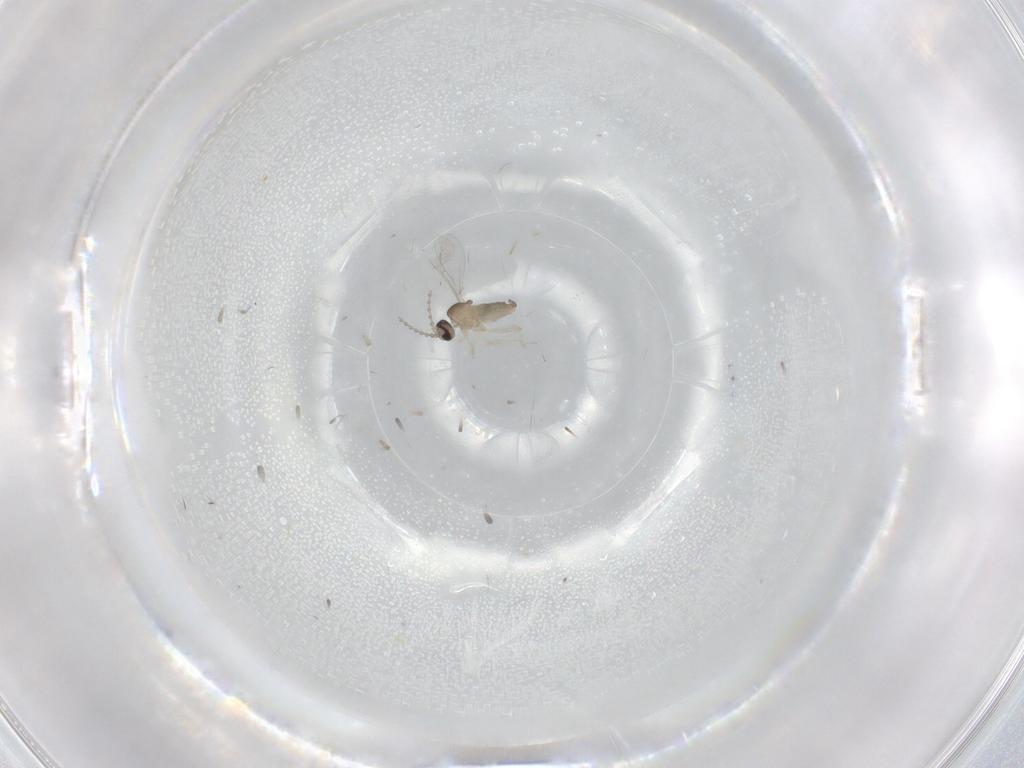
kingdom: Animalia
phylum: Arthropoda
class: Insecta
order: Diptera
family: Cecidomyiidae
